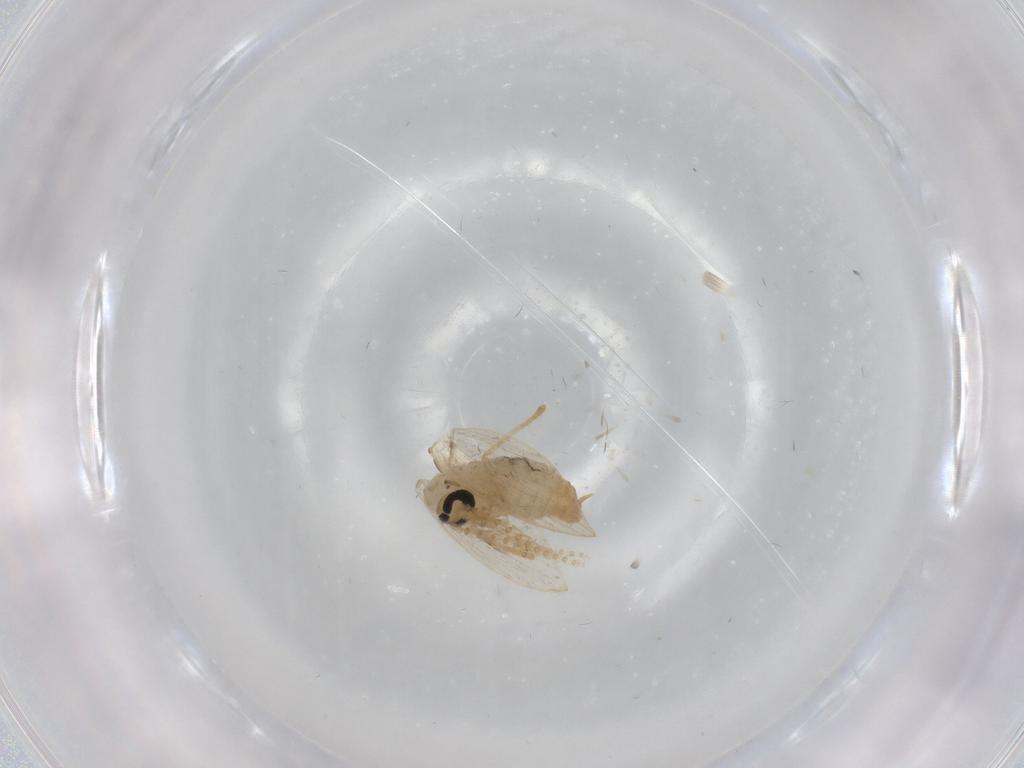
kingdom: Animalia
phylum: Arthropoda
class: Insecta
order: Diptera
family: Psychodidae
